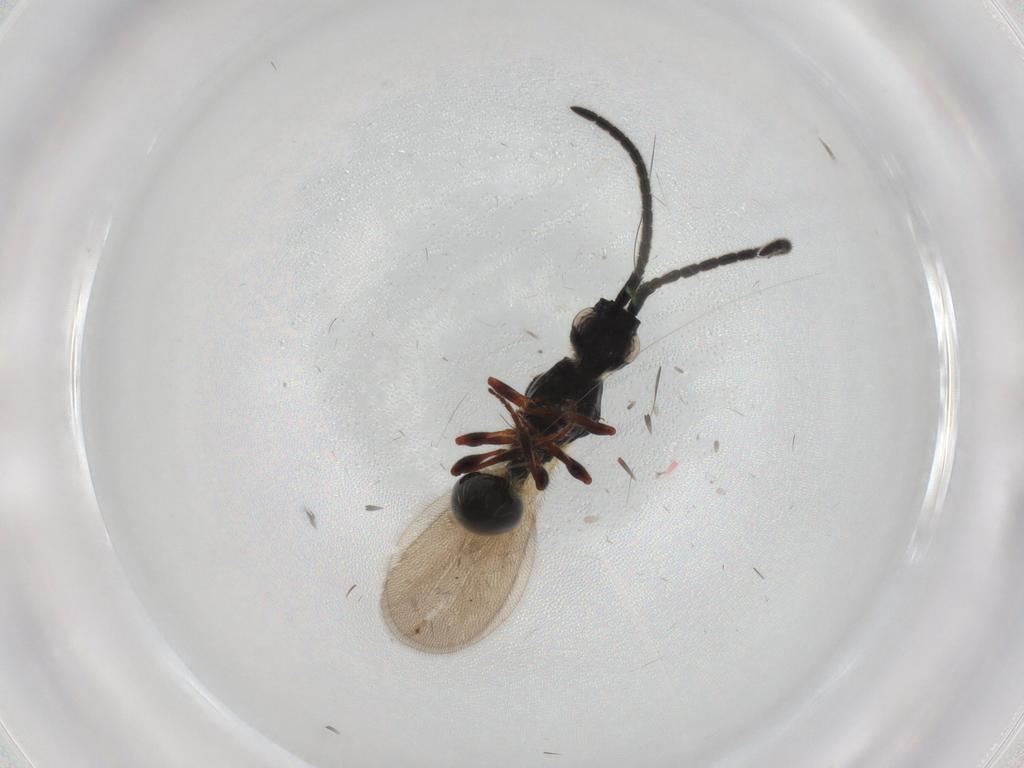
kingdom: Animalia
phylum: Arthropoda
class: Insecta
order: Hymenoptera
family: Diapriidae
